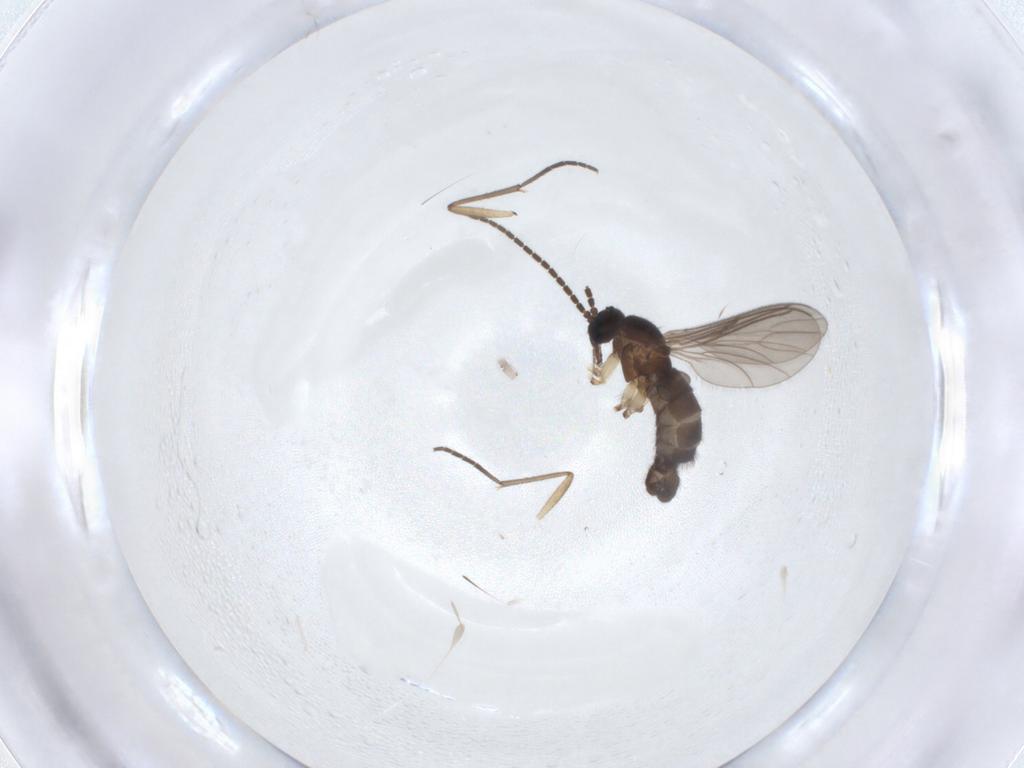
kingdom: Animalia
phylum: Arthropoda
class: Insecta
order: Diptera
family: Sciaridae
